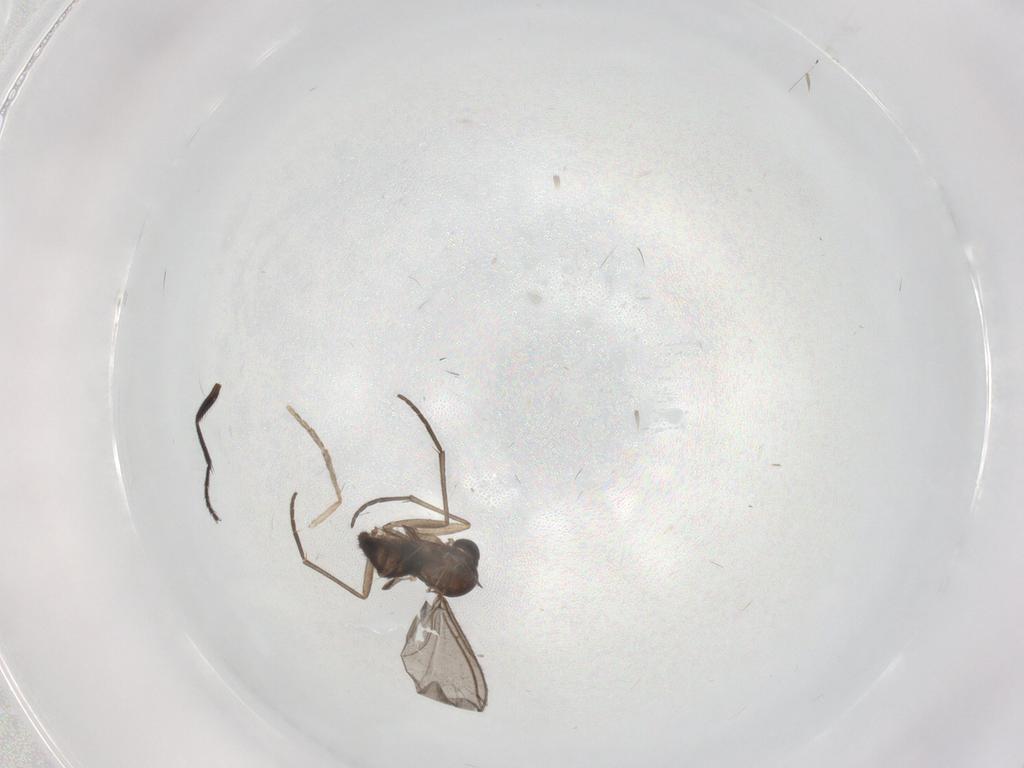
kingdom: Animalia
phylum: Arthropoda
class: Insecta
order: Diptera
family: Sciaridae
